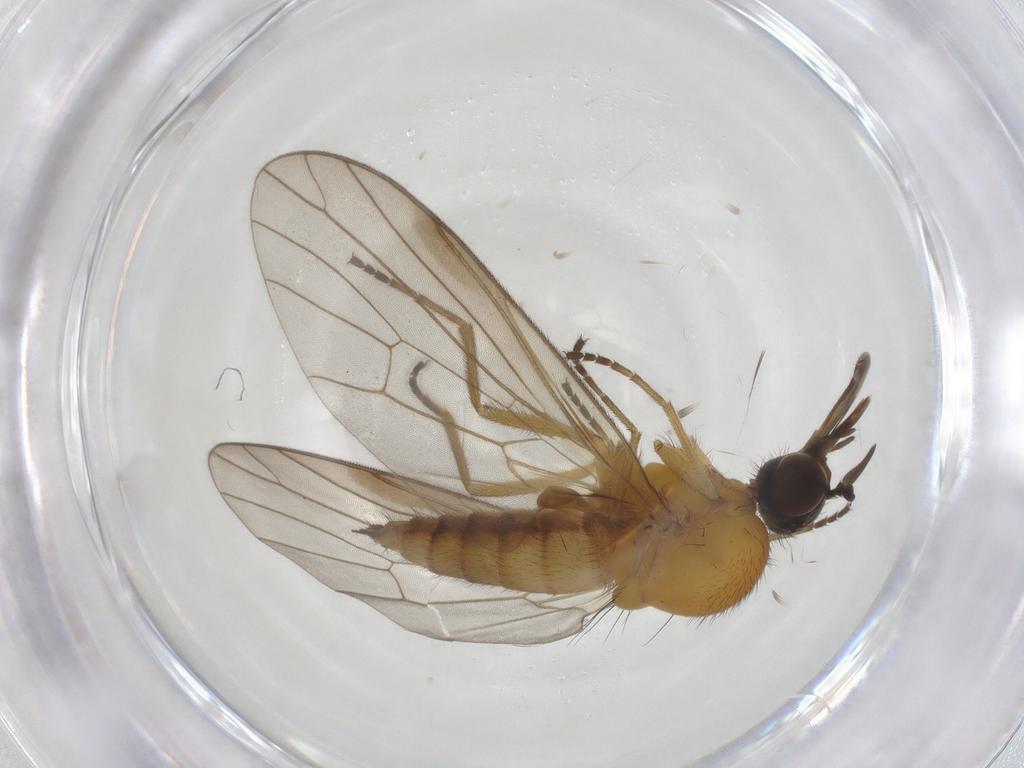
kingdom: Animalia
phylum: Arthropoda
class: Insecta
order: Diptera
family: Iteaphilidae
